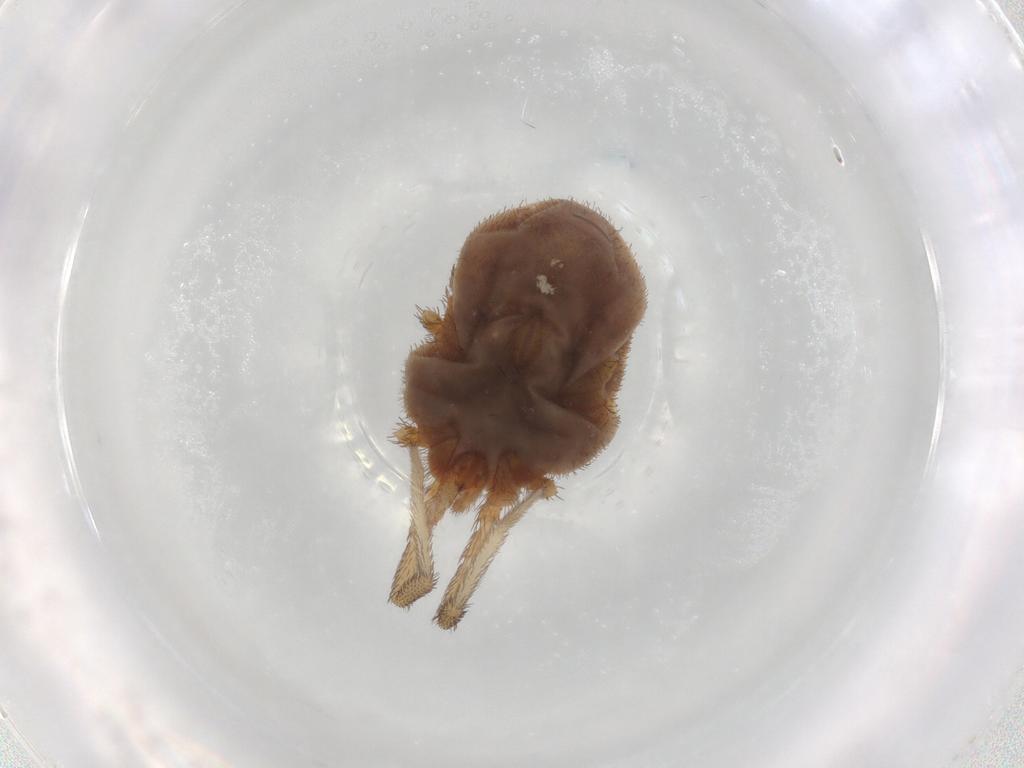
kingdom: Animalia
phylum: Arthropoda
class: Arachnida
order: Trombidiformes
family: Erythraeidae
